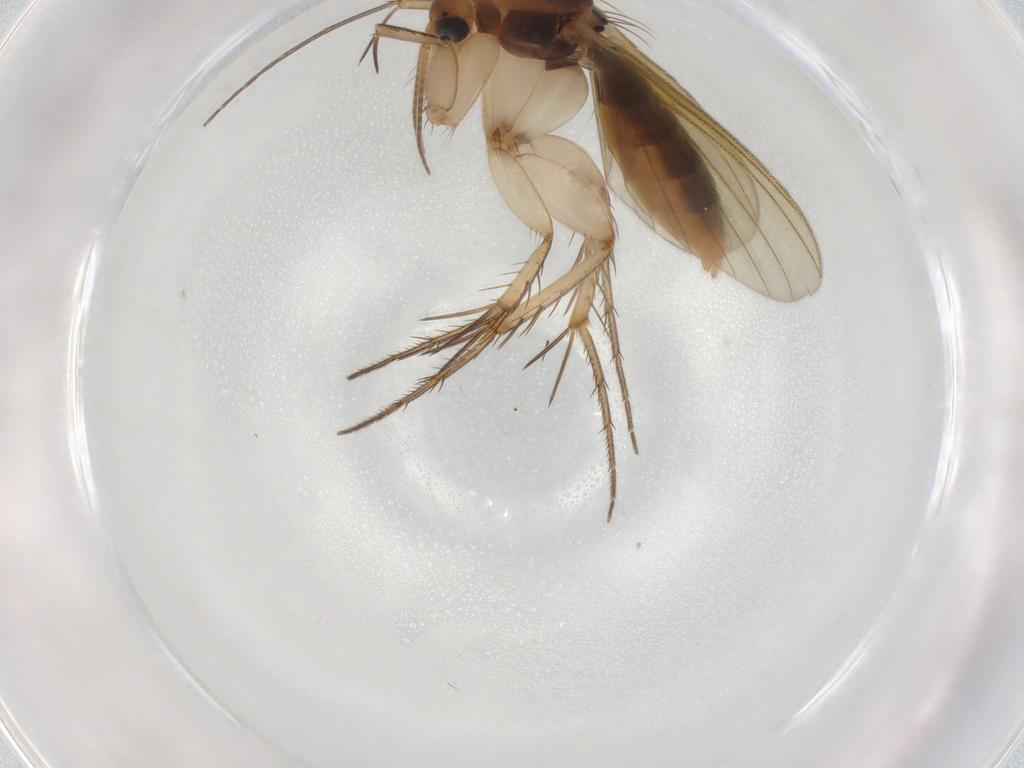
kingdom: Animalia
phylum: Arthropoda
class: Insecta
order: Diptera
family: Mycetophilidae
